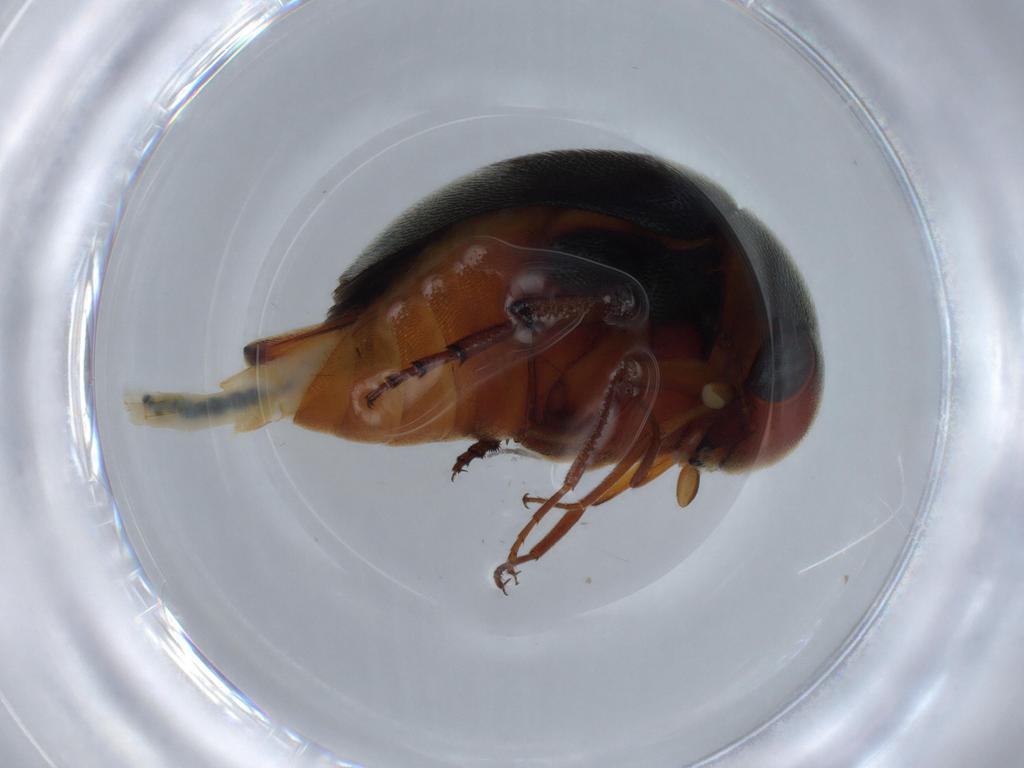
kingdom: Animalia
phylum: Arthropoda
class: Insecta
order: Coleoptera
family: Mordellidae
